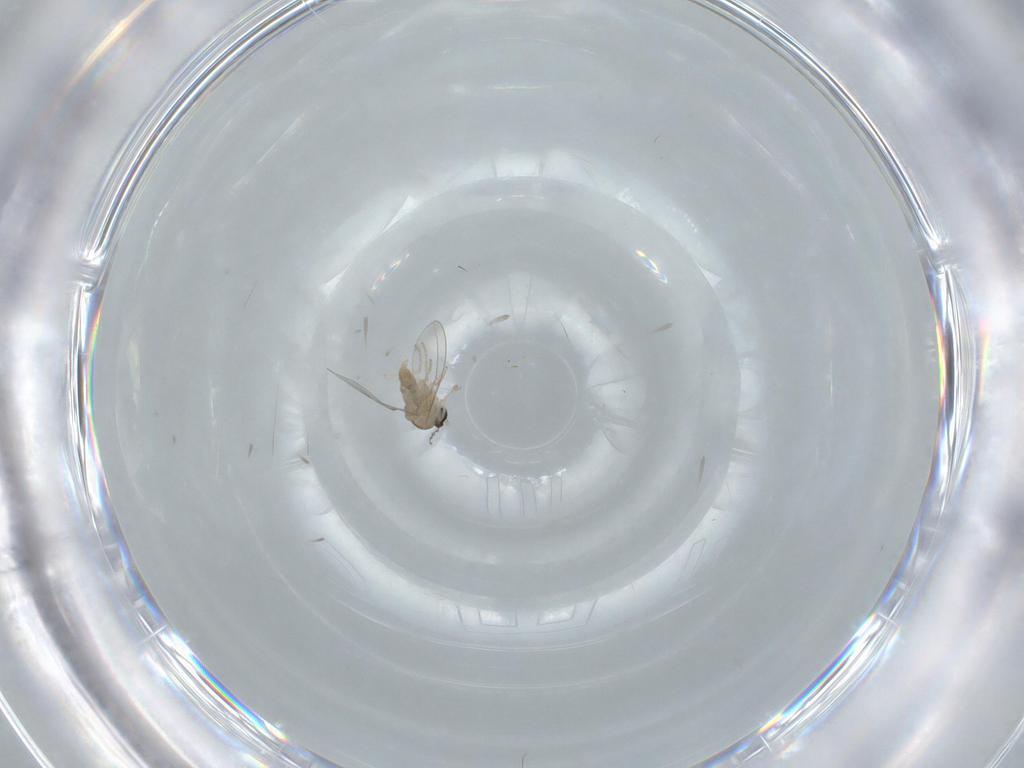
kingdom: Animalia
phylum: Arthropoda
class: Insecta
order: Diptera
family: Cecidomyiidae
